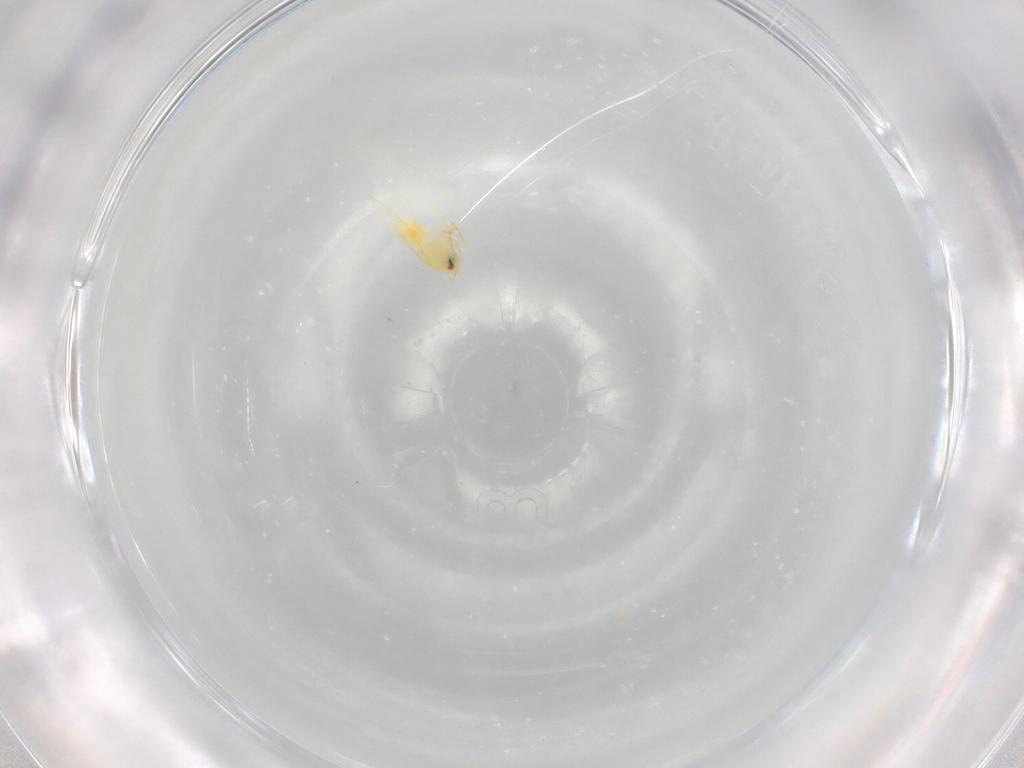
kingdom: Animalia
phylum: Arthropoda
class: Insecta
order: Hemiptera
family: Aleyrodidae
